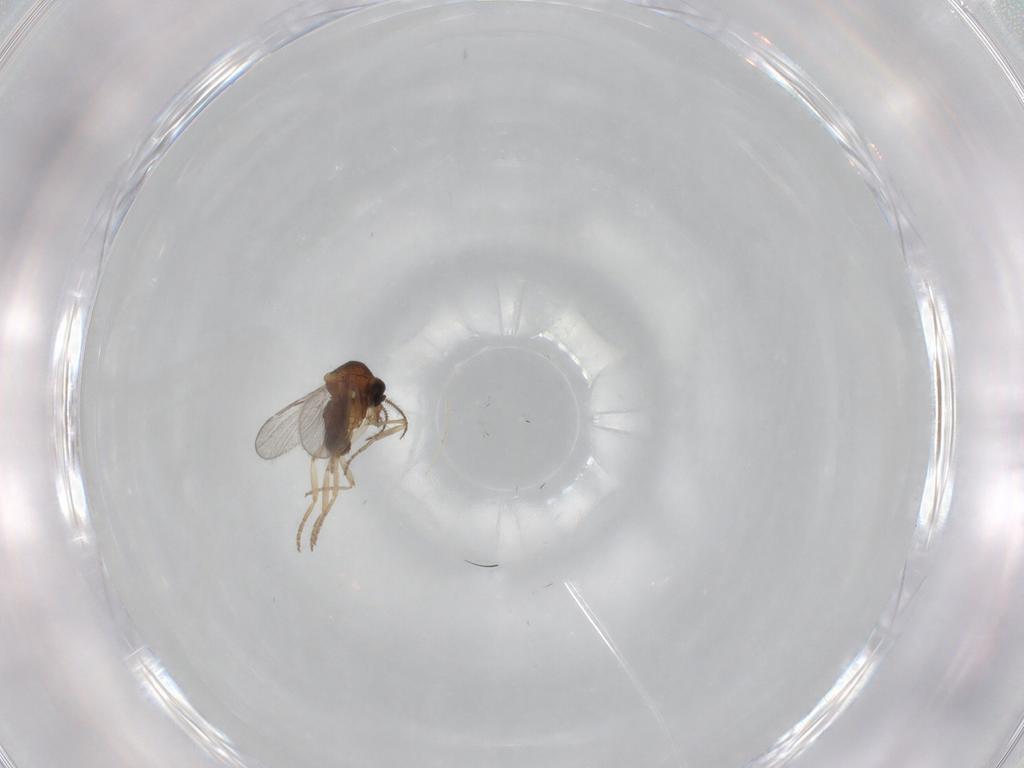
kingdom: Animalia
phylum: Arthropoda
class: Insecta
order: Diptera
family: Ceratopogonidae
